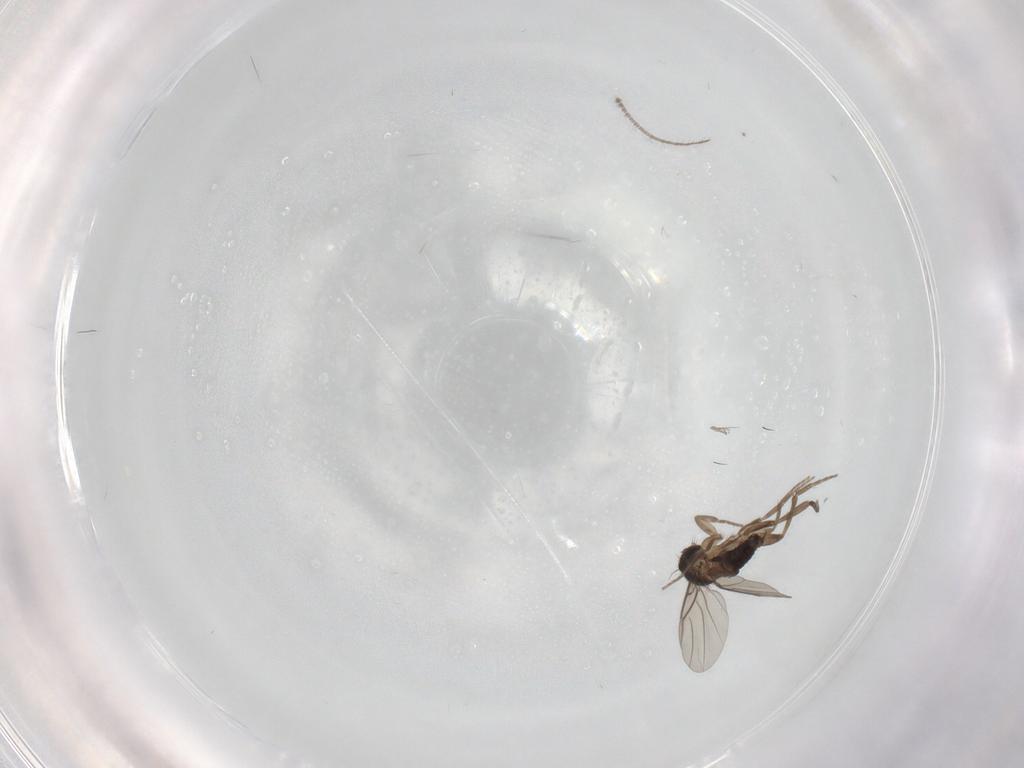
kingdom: Animalia
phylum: Arthropoda
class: Insecta
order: Diptera
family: Phoridae
